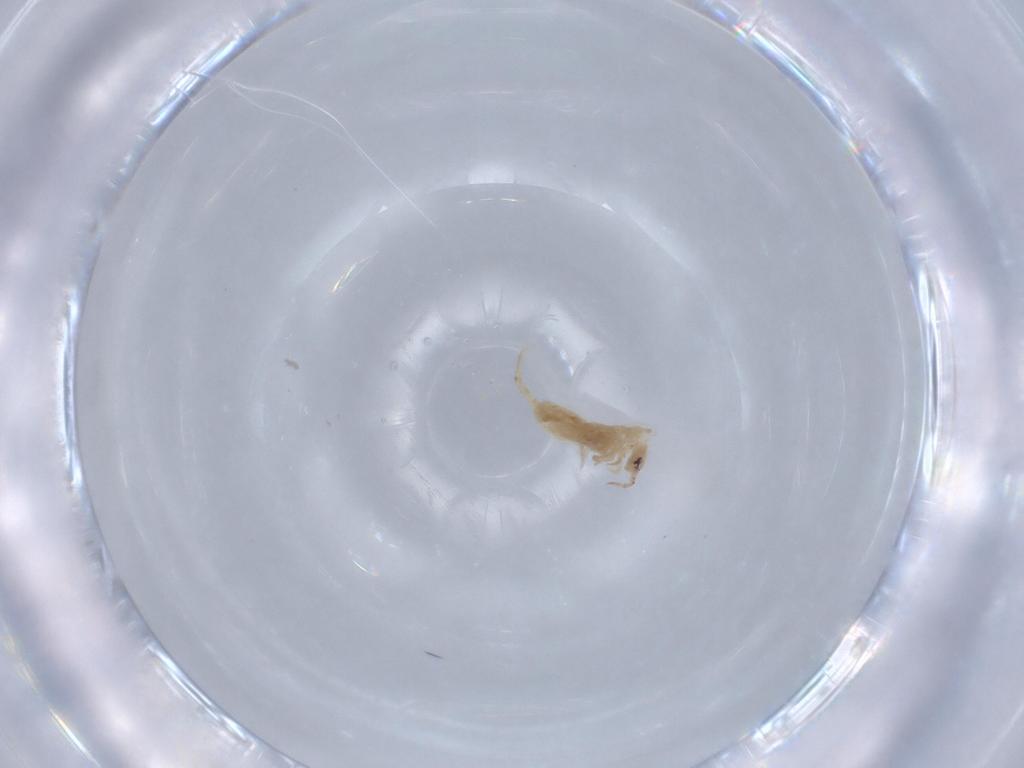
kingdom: Animalia
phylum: Arthropoda
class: Collembola
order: Entomobryomorpha
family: Entomobryidae
